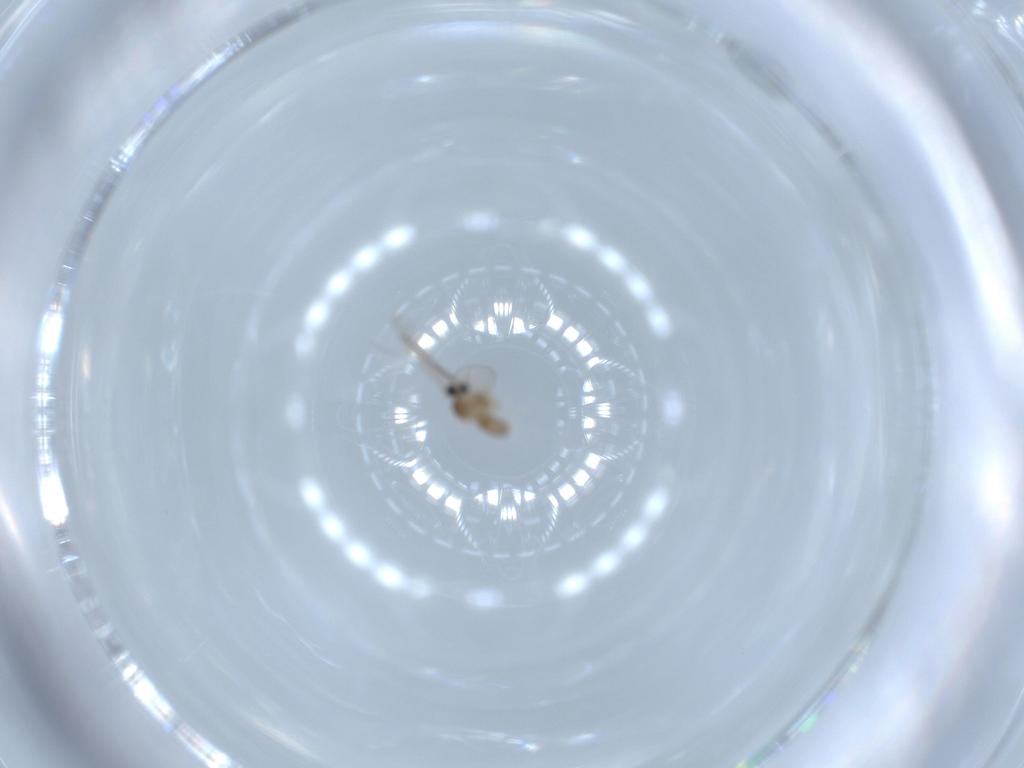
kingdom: Animalia
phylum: Arthropoda
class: Insecta
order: Diptera
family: Cecidomyiidae
